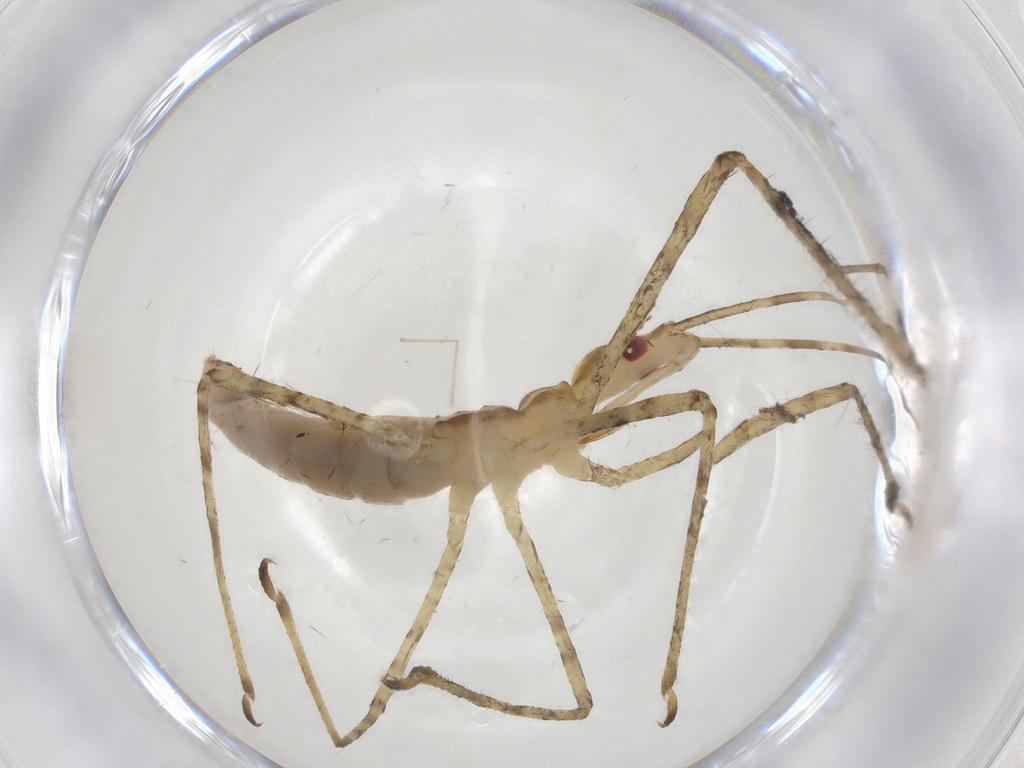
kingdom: Animalia
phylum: Arthropoda
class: Insecta
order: Hemiptera
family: Reduviidae
